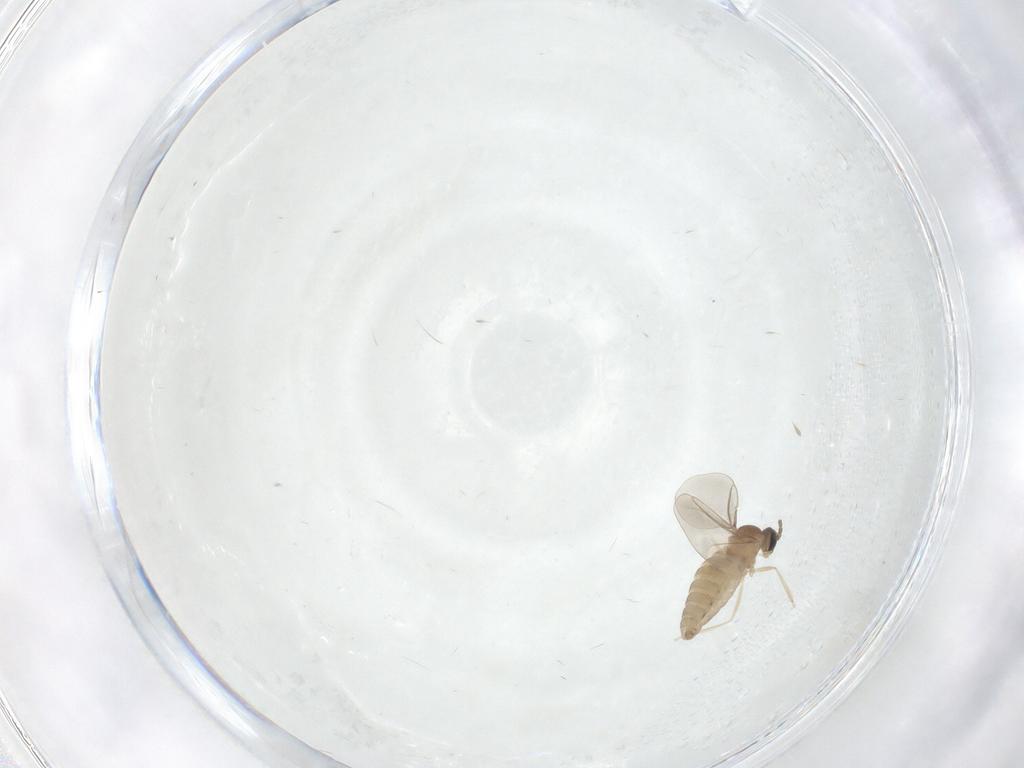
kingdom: Animalia
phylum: Arthropoda
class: Insecta
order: Diptera
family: Cecidomyiidae
